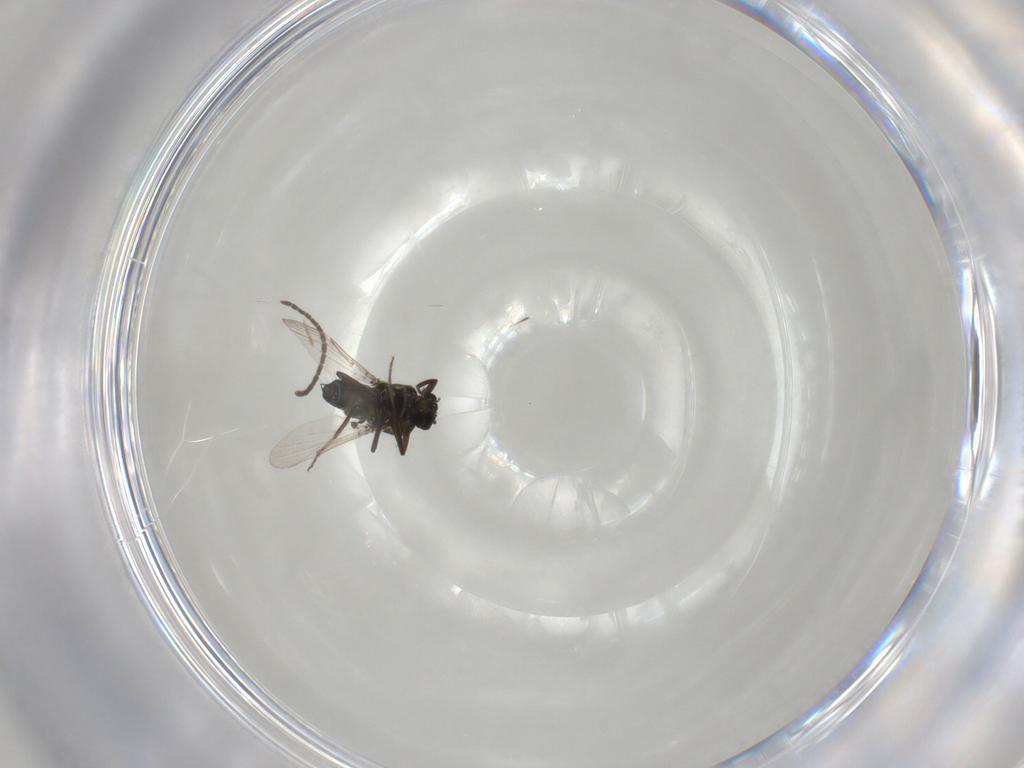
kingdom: Animalia
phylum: Arthropoda
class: Insecta
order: Diptera
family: Ceratopogonidae
